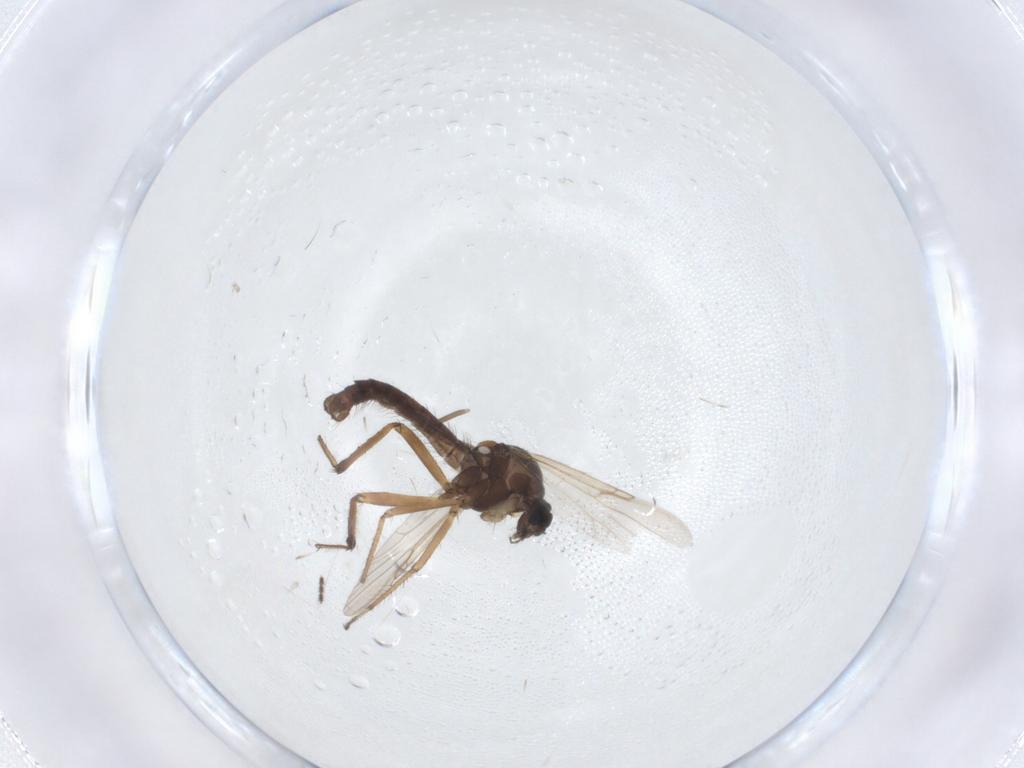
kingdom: Animalia
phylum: Arthropoda
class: Insecta
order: Diptera
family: Ceratopogonidae
